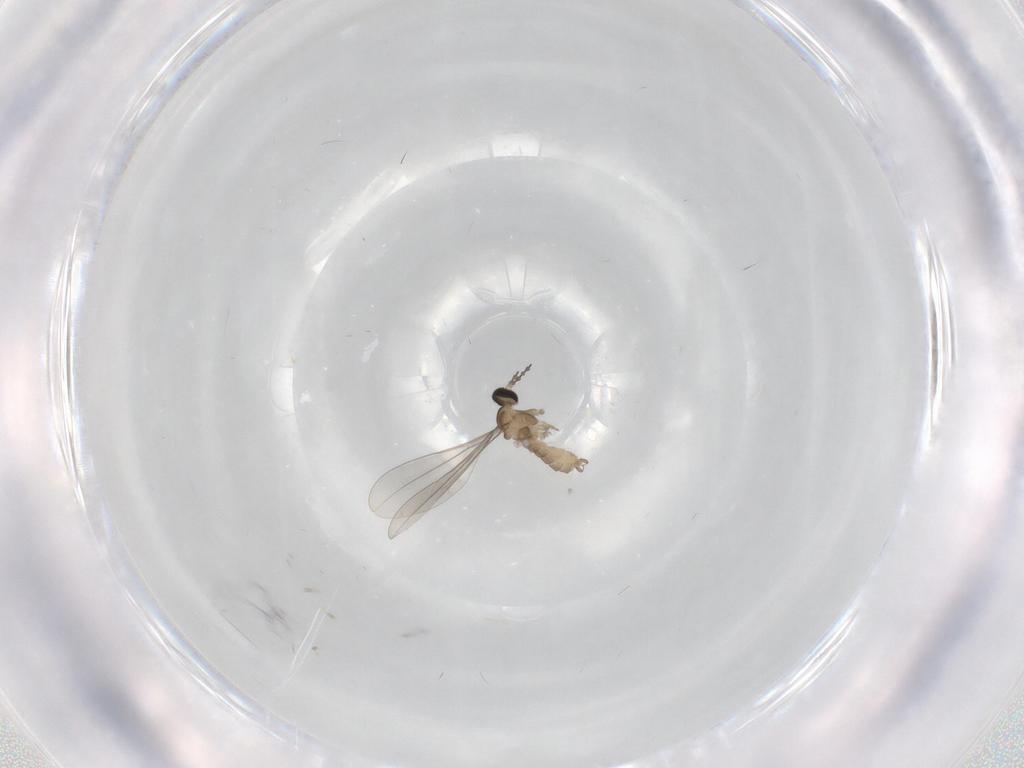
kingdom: Animalia
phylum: Arthropoda
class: Insecta
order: Diptera
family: Cecidomyiidae
